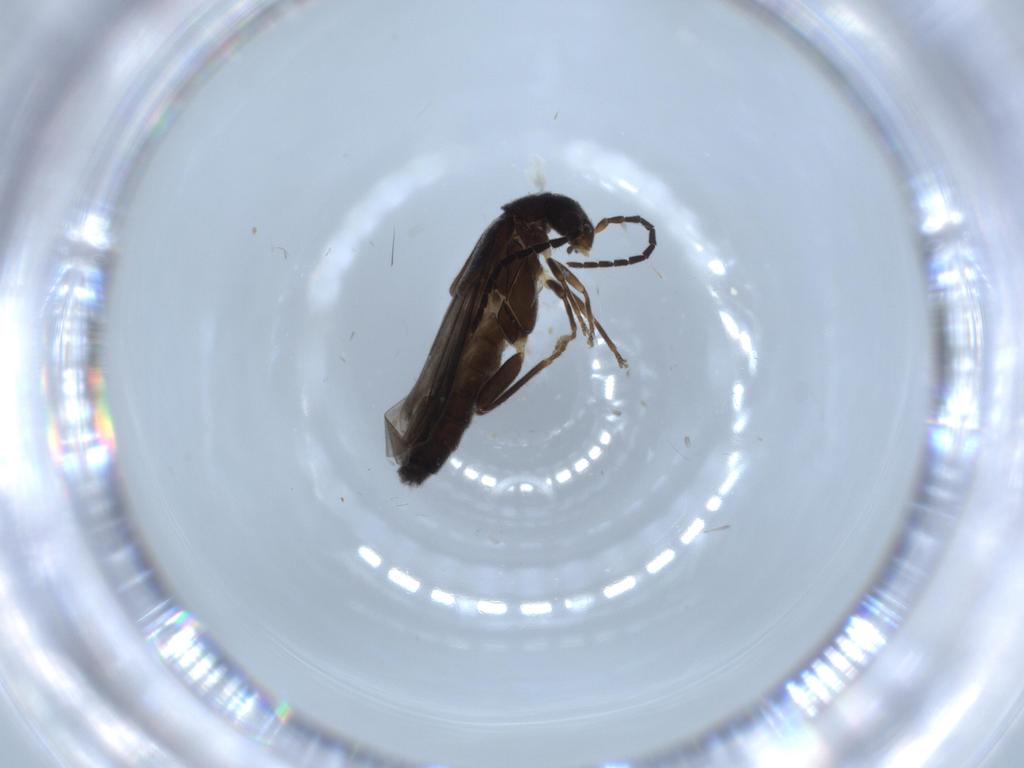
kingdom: Animalia
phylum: Arthropoda
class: Insecta
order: Coleoptera
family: Cantharidae
